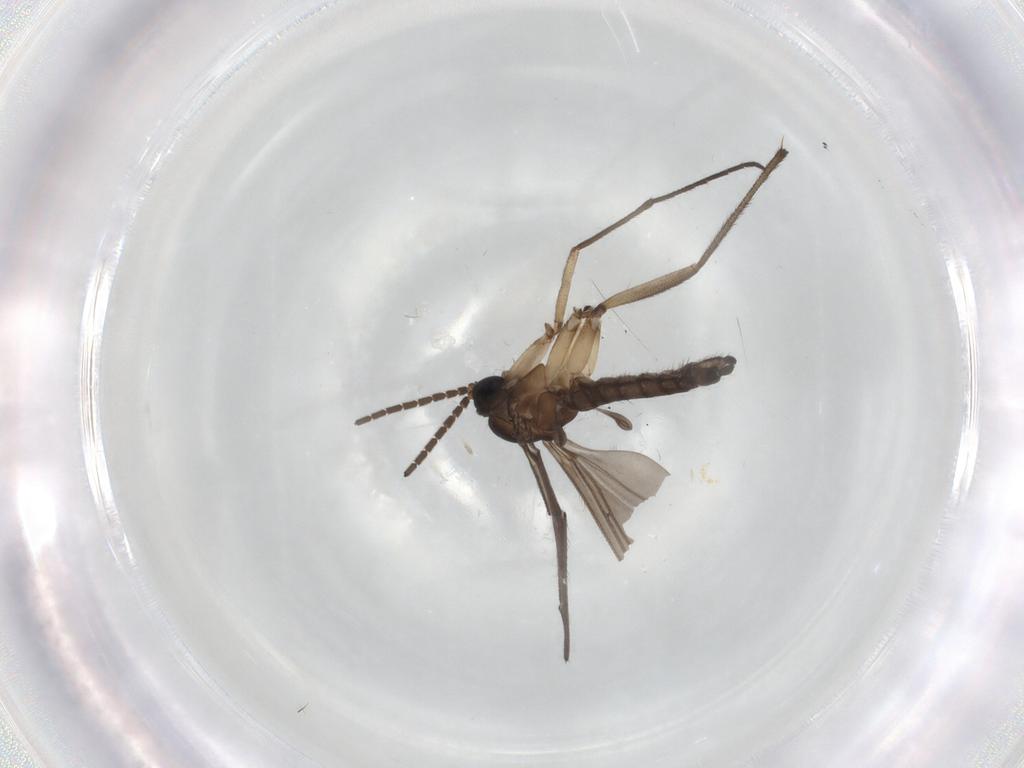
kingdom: Animalia
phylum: Arthropoda
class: Insecta
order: Diptera
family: Sciaridae
